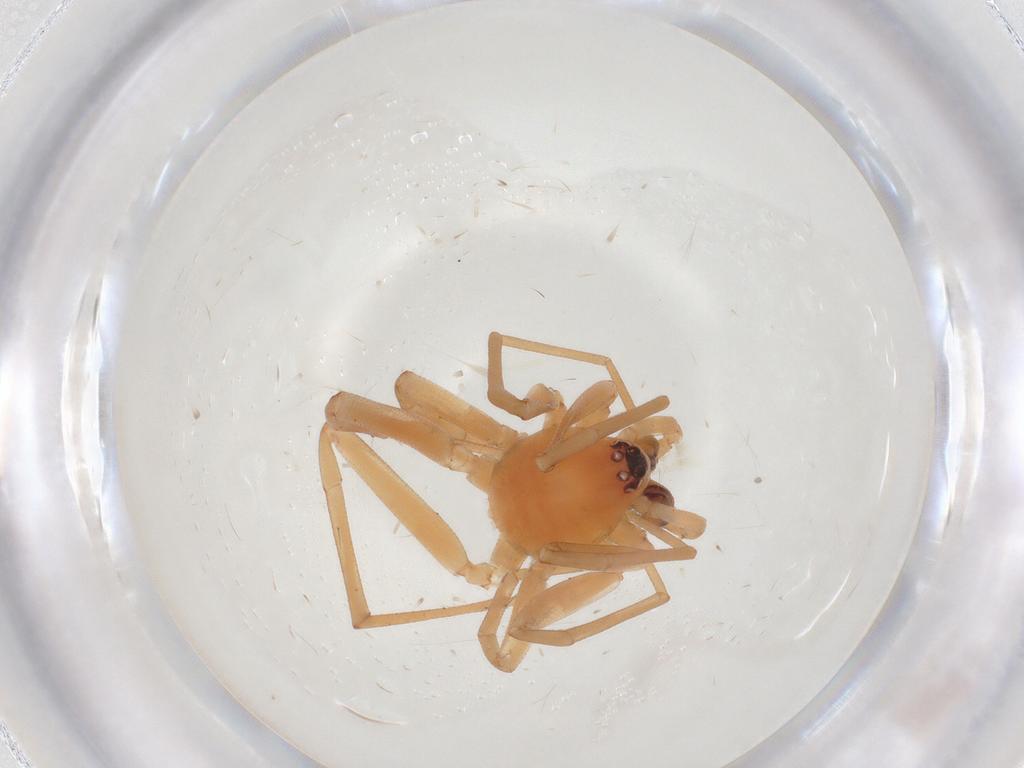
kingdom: Animalia
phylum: Arthropoda
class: Arachnida
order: Araneae
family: Corinnidae
